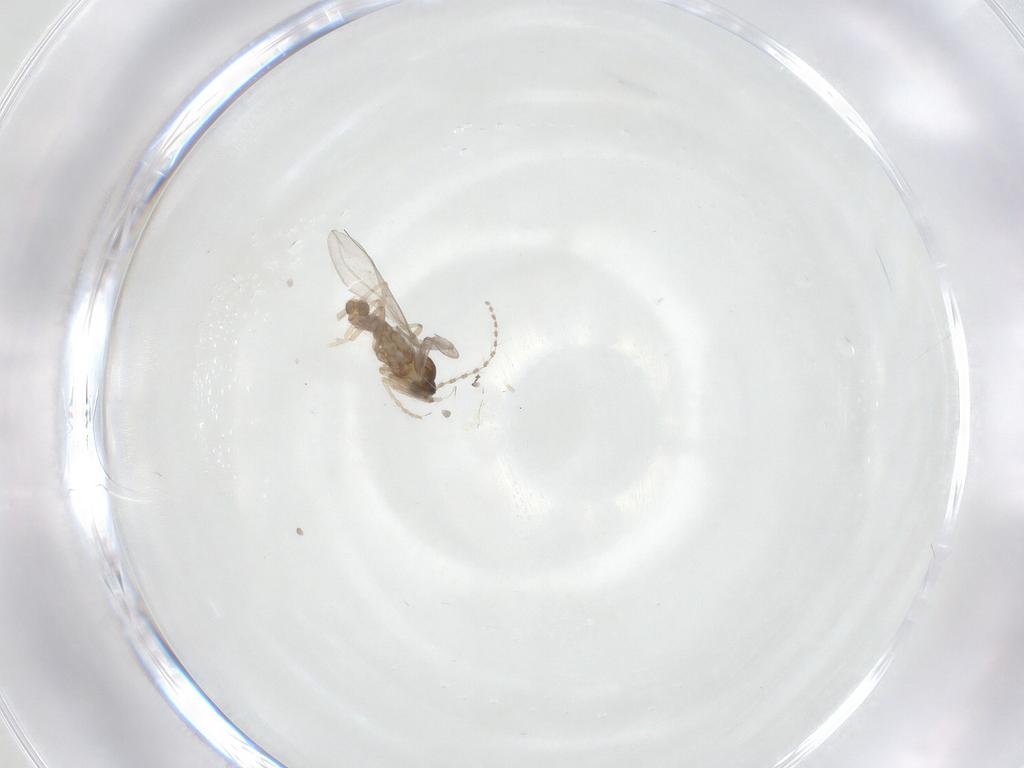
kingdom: Animalia
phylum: Arthropoda
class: Insecta
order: Diptera
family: Cecidomyiidae
